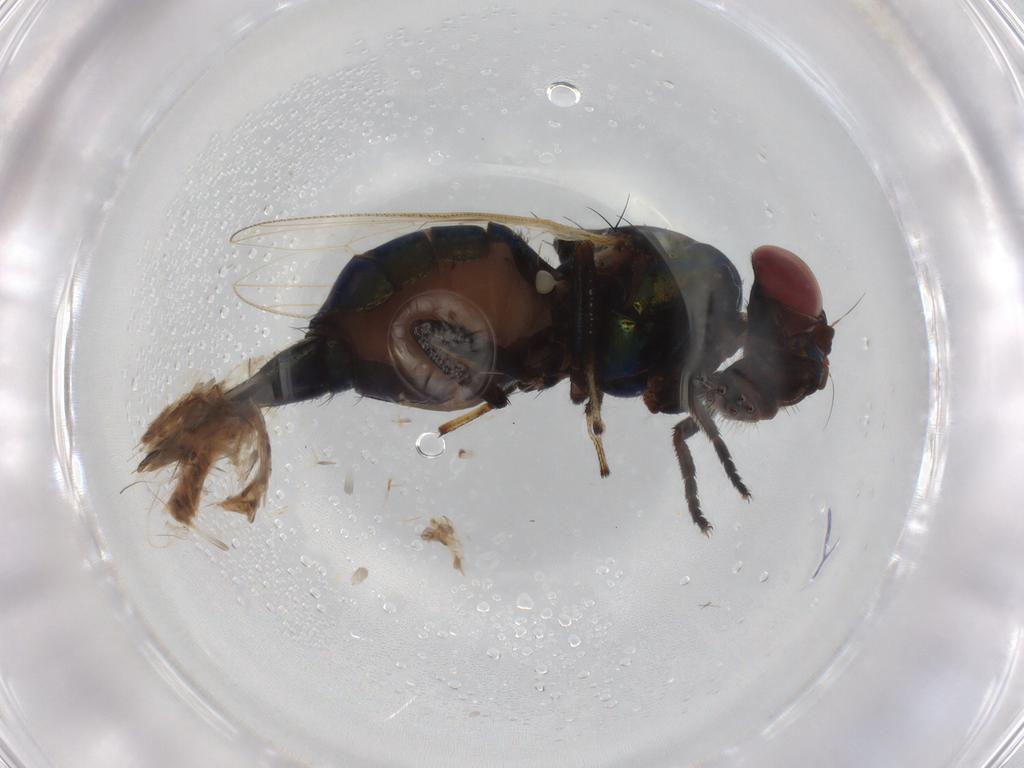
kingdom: Animalia
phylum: Arthropoda
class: Insecta
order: Diptera
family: Ulidiidae
